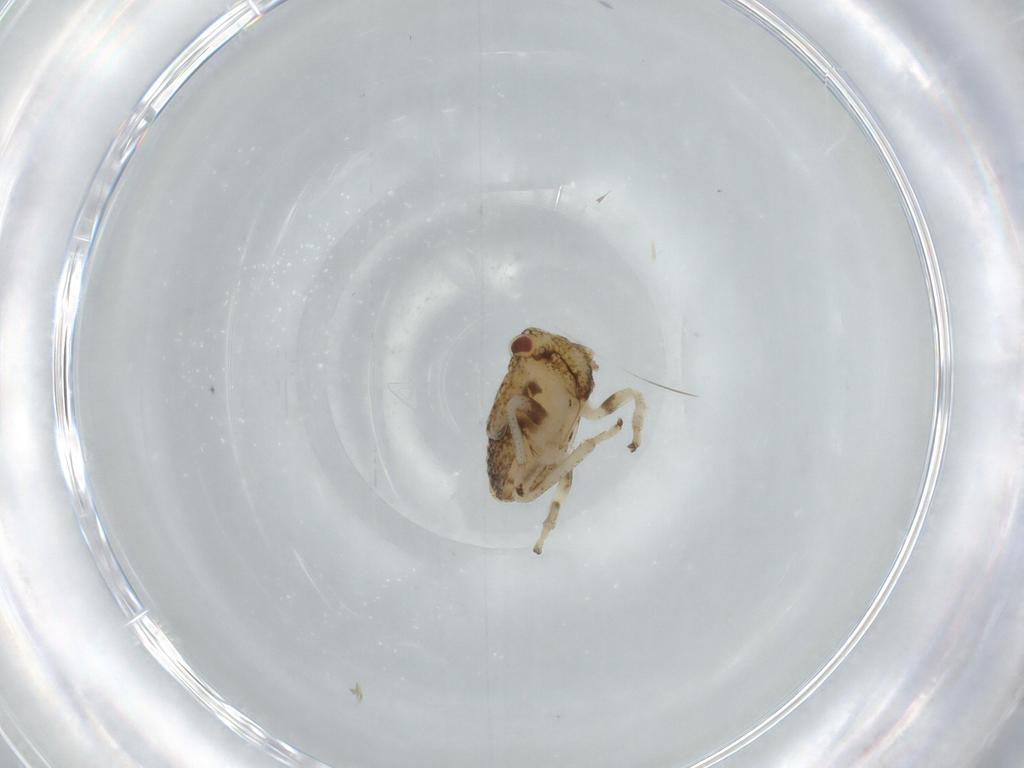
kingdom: Animalia
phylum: Arthropoda
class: Insecta
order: Hemiptera
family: Cicadellidae
